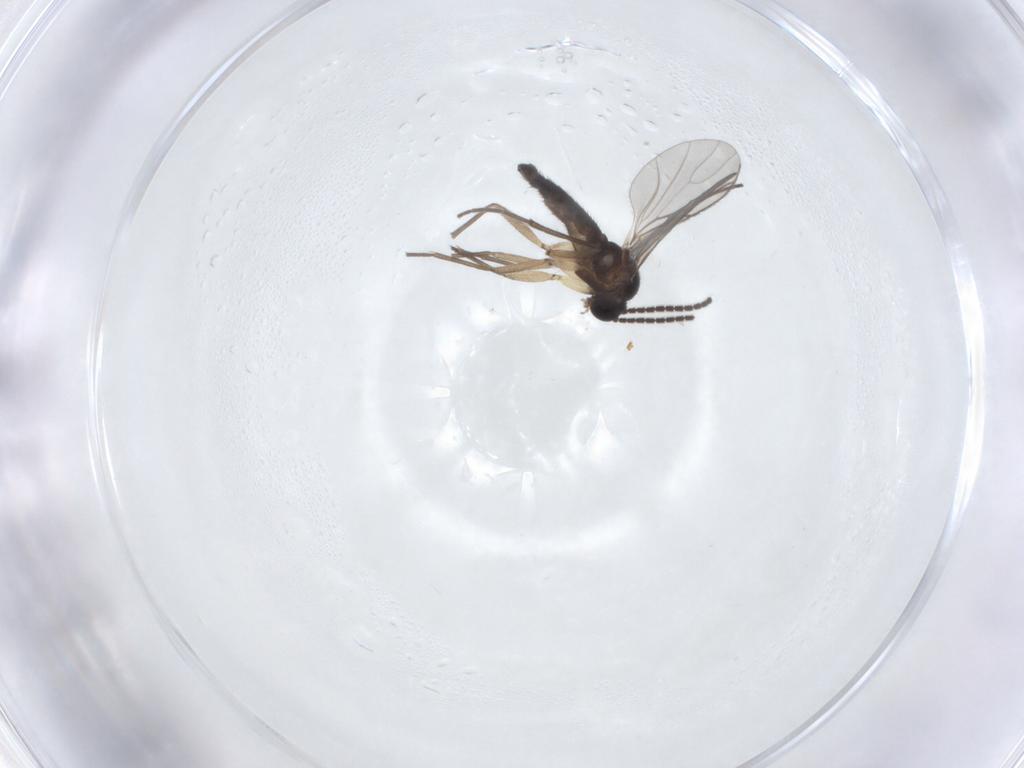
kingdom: Animalia
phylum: Arthropoda
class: Insecta
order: Diptera
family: Sciaridae
